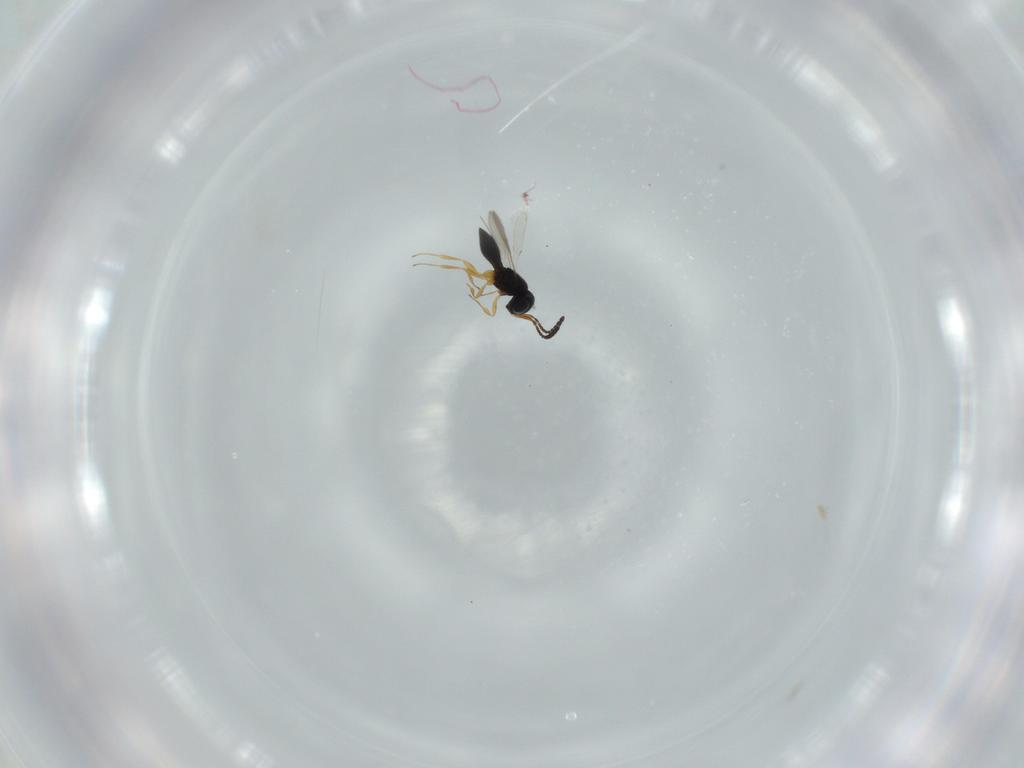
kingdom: Animalia
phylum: Arthropoda
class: Insecta
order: Hymenoptera
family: Scelionidae
